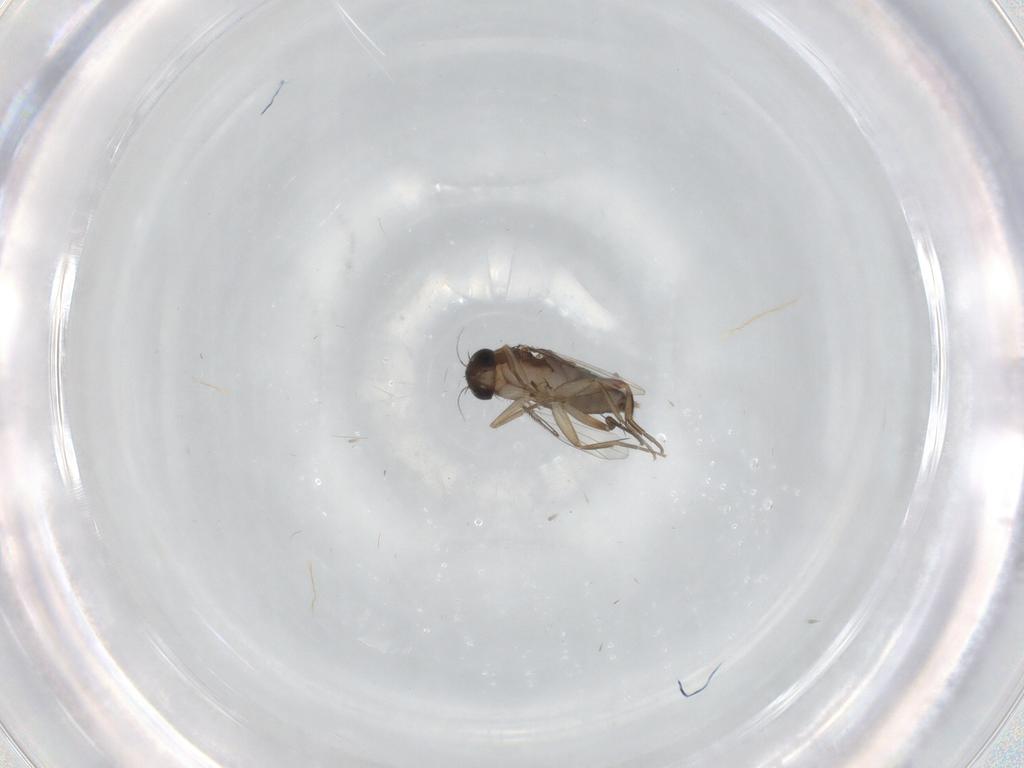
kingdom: Animalia
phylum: Arthropoda
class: Insecta
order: Diptera
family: Phoridae
